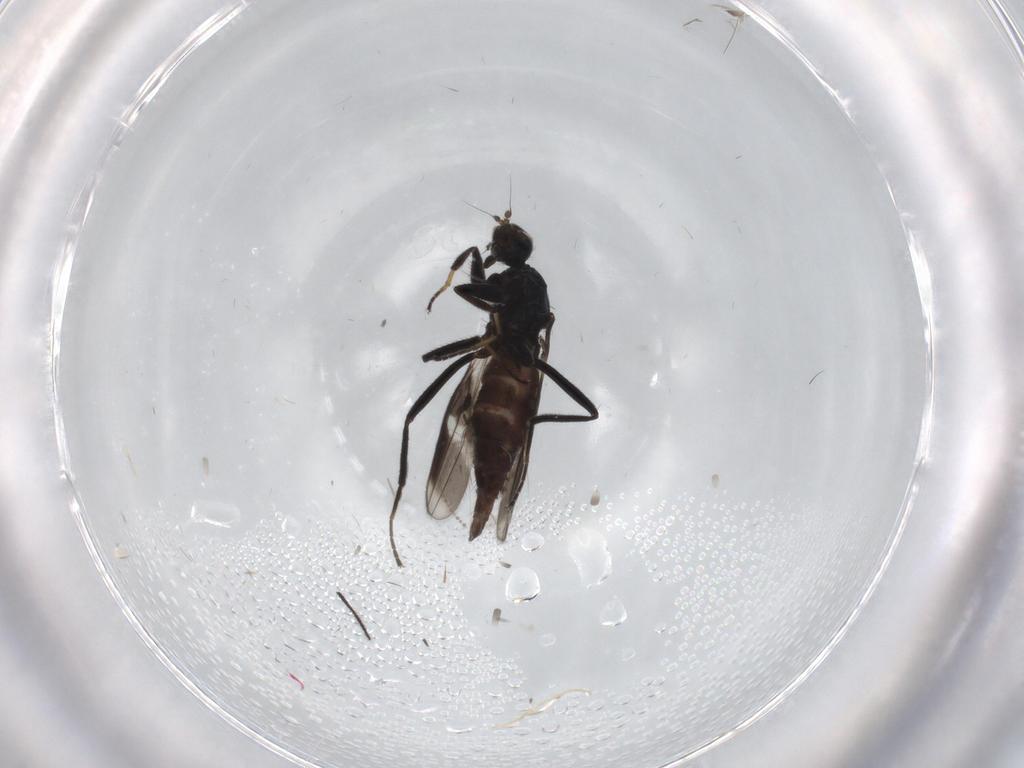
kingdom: Animalia
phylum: Arthropoda
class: Insecta
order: Diptera
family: Hybotidae
